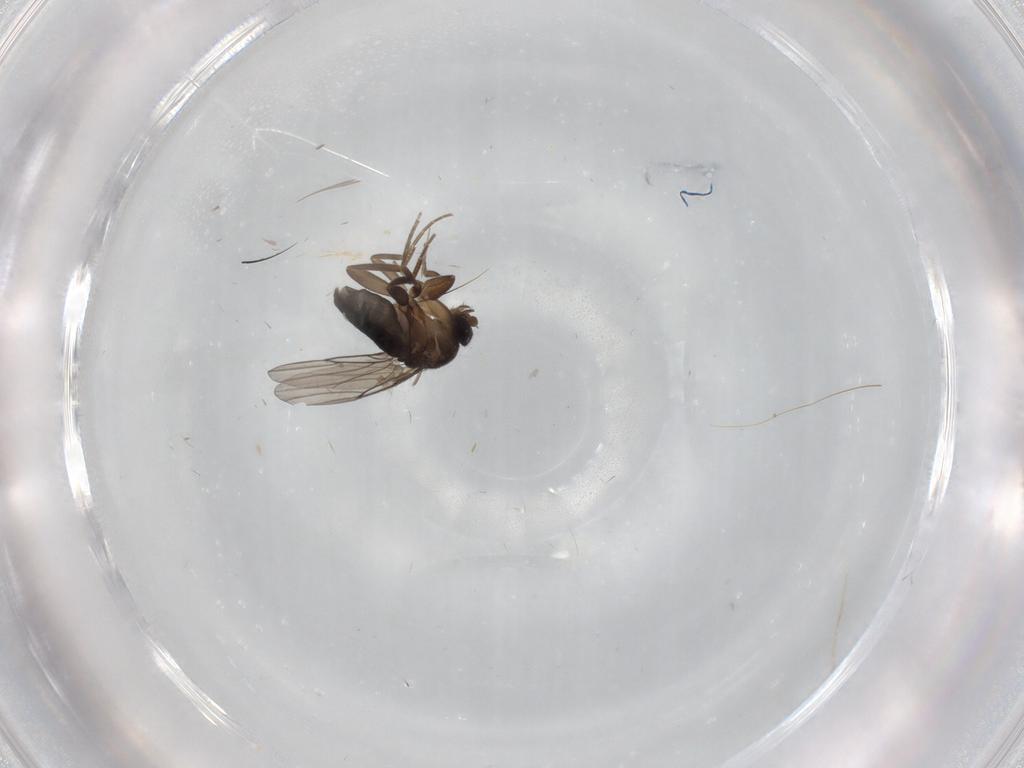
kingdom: Animalia
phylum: Arthropoda
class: Insecta
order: Diptera
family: Phoridae
